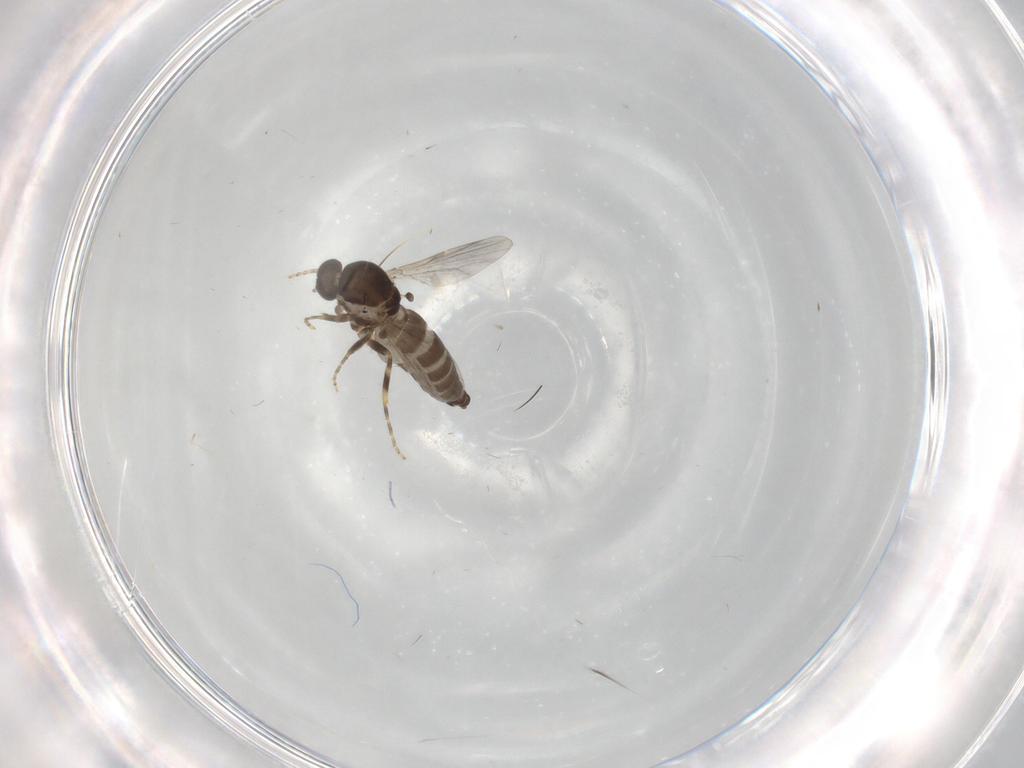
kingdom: Animalia
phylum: Arthropoda
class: Insecta
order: Diptera
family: Ceratopogonidae
